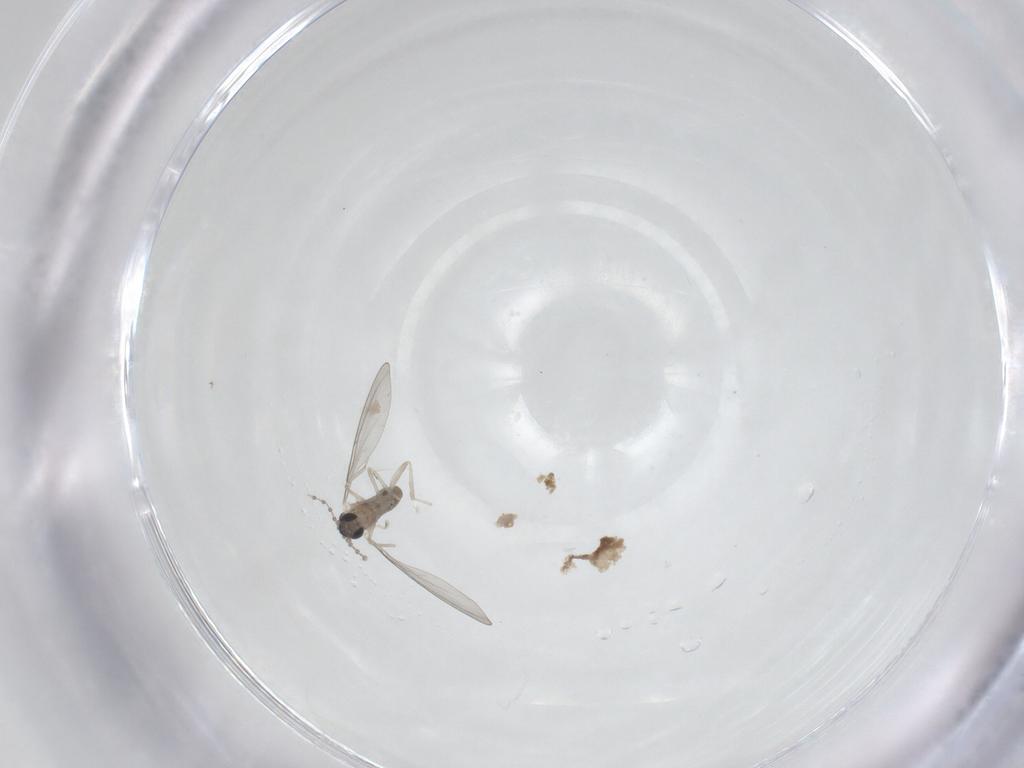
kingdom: Animalia
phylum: Arthropoda
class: Insecta
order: Diptera
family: Cecidomyiidae
